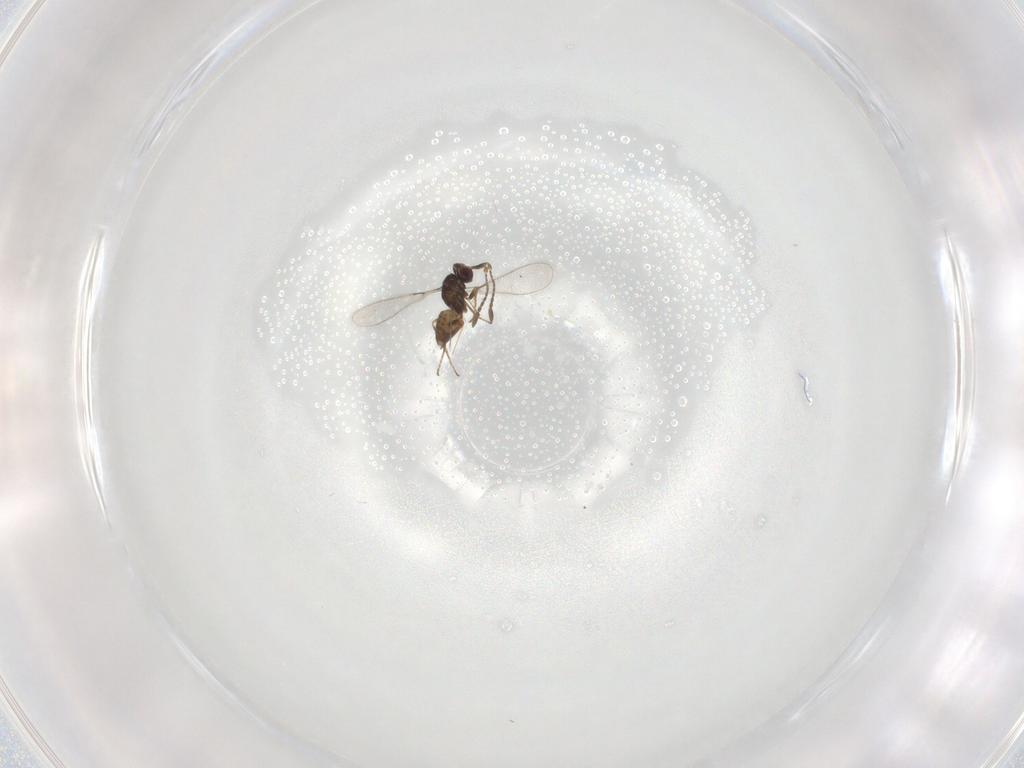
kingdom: Animalia
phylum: Arthropoda
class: Insecta
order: Hymenoptera
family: Mymaridae
